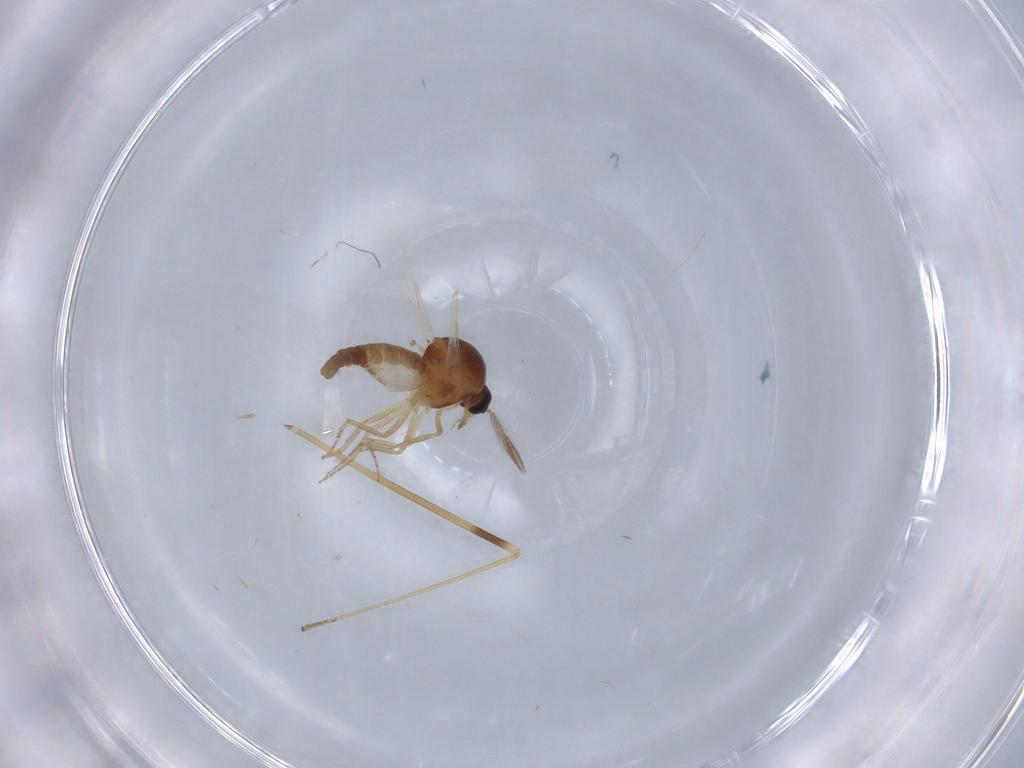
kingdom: Animalia
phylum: Arthropoda
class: Insecta
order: Diptera
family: Ceratopogonidae
